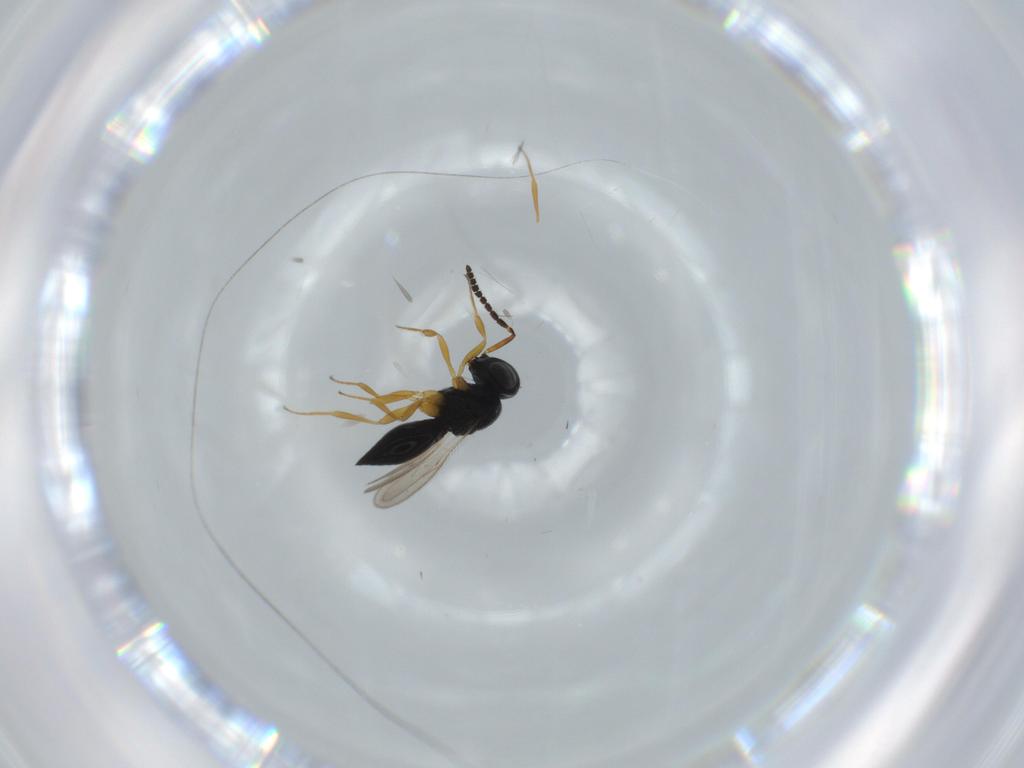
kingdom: Animalia
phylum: Arthropoda
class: Insecta
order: Hymenoptera
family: Scelionidae
